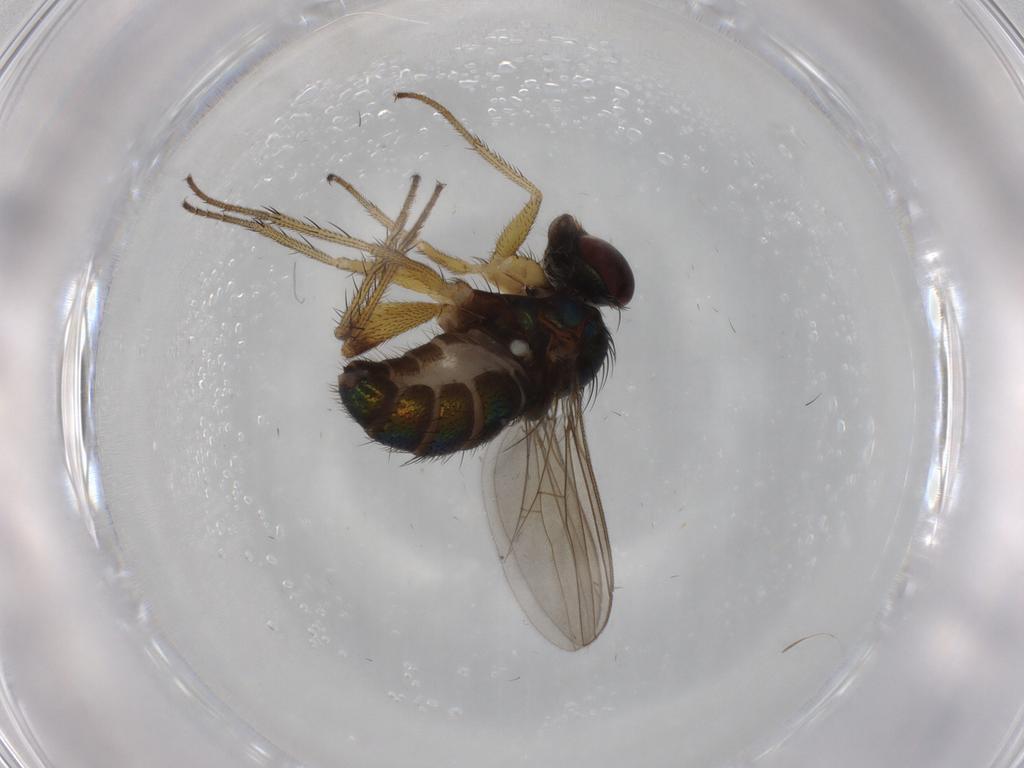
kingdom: Animalia
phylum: Arthropoda
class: Insecta
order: Diptera
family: Dolichopodidae
